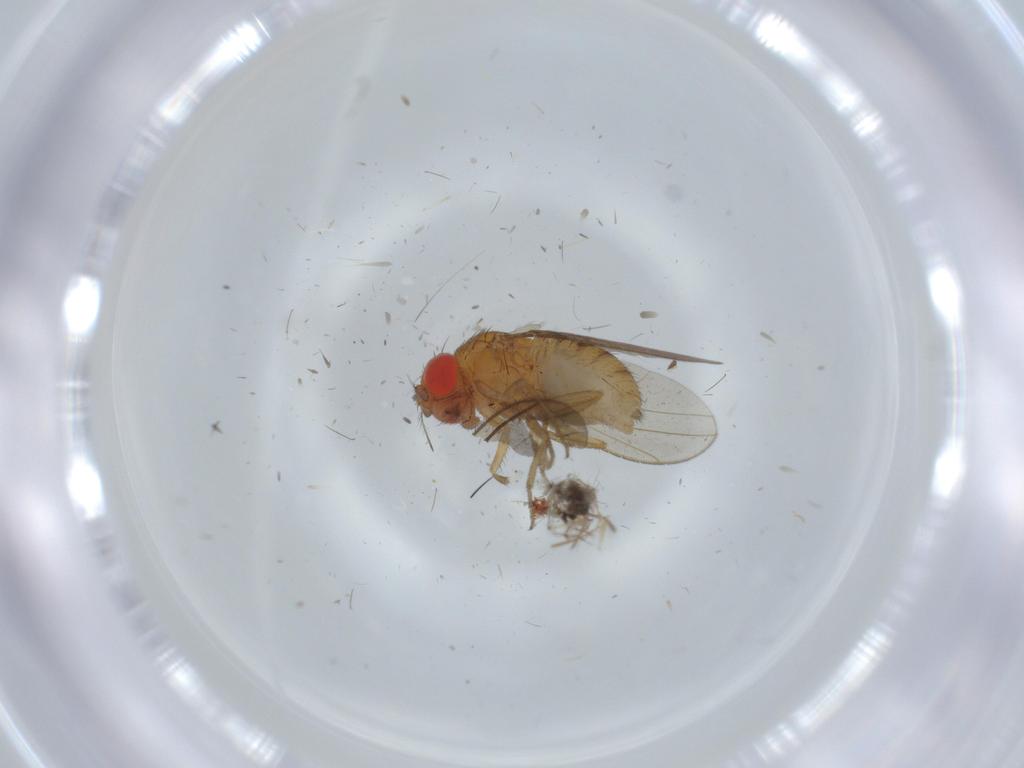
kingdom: Animalia
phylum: Arthropoda
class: Insecta
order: Diptera
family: Drosophilidae
